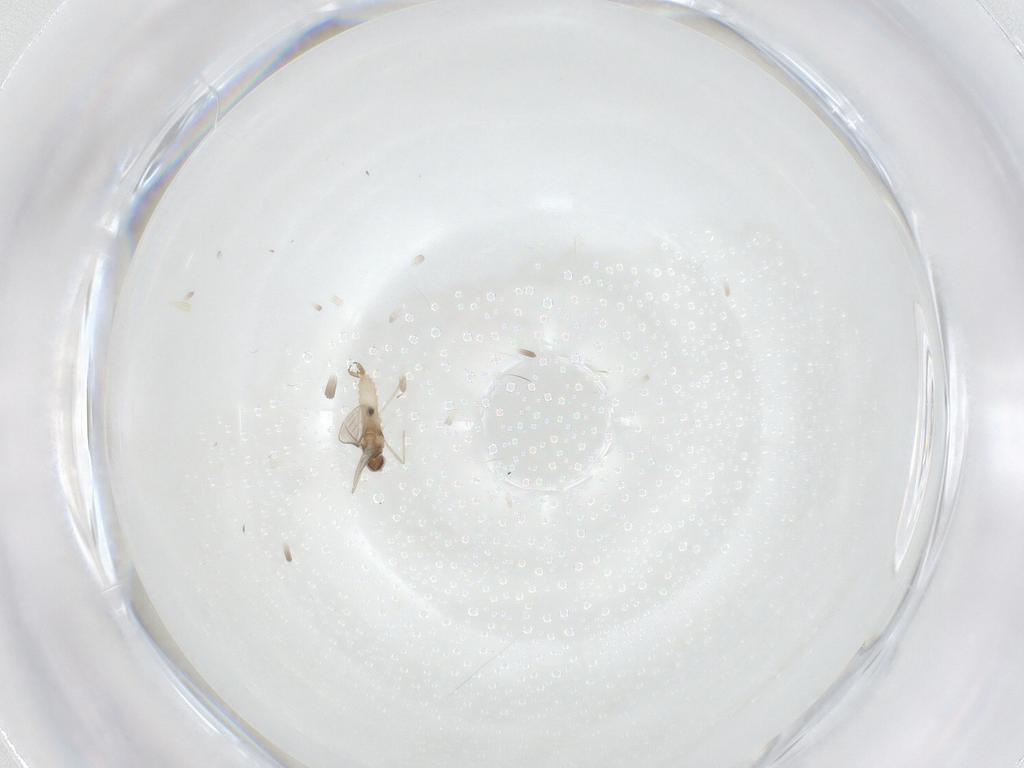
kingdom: Animalia
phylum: Arthropoda
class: Insecta
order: Diptera
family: Cecidomyiidae
